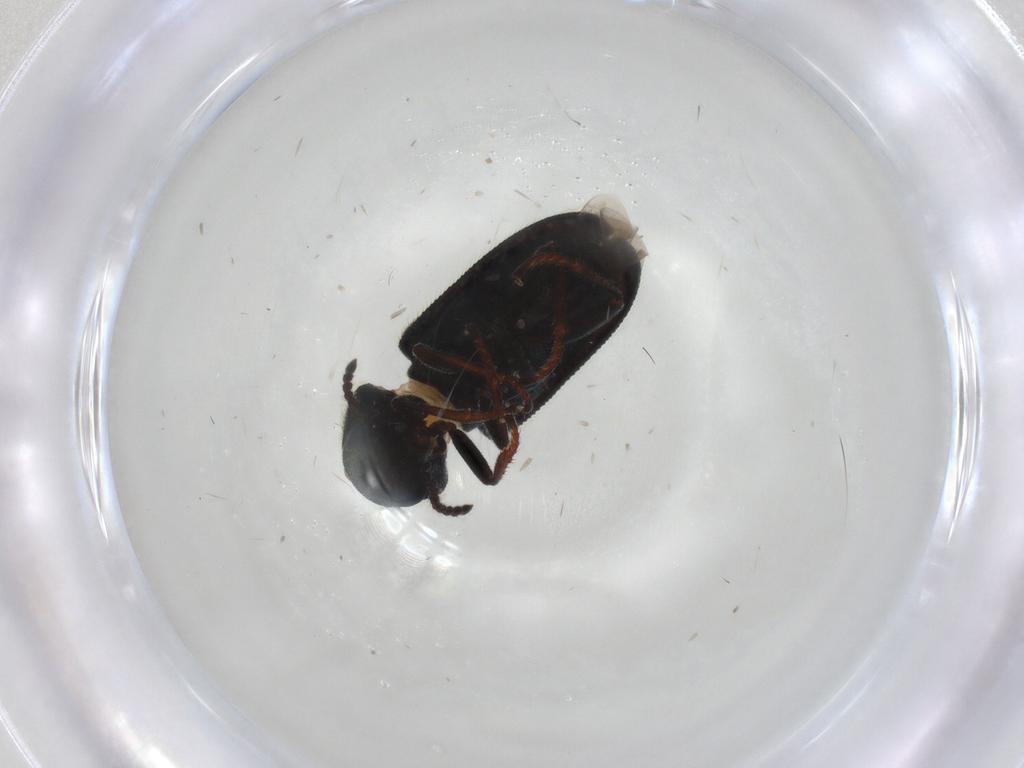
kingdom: Animalia
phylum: Arthropoda
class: Insecta
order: Coleoptera
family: Melyridae
